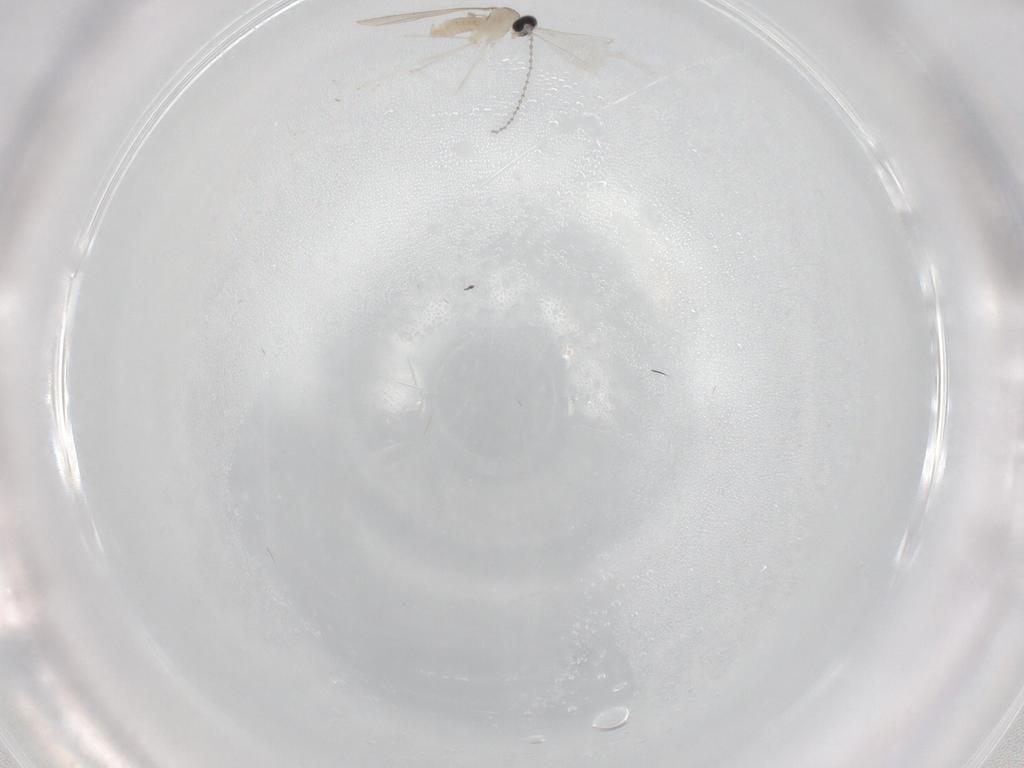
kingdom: Animalia
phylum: Arthropoda
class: Insecta
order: Diptera
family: Cecidomyiidae
